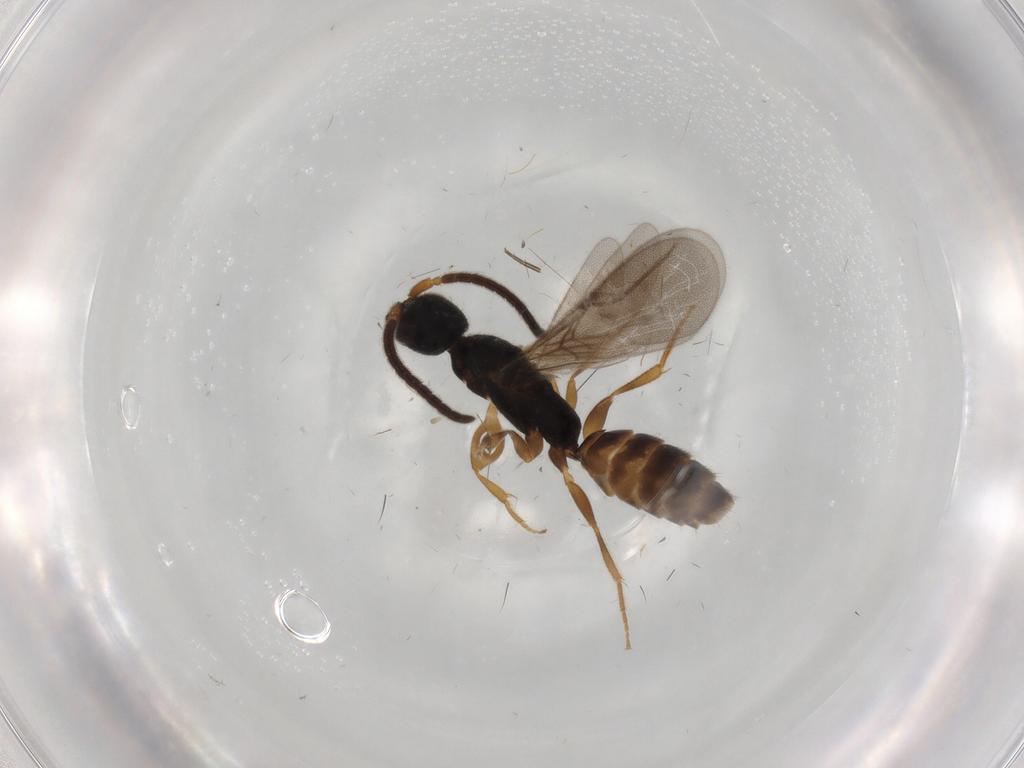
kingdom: Animalia
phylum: Arthropoda
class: Insecta
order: Hymenoptera
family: Bethylidae
